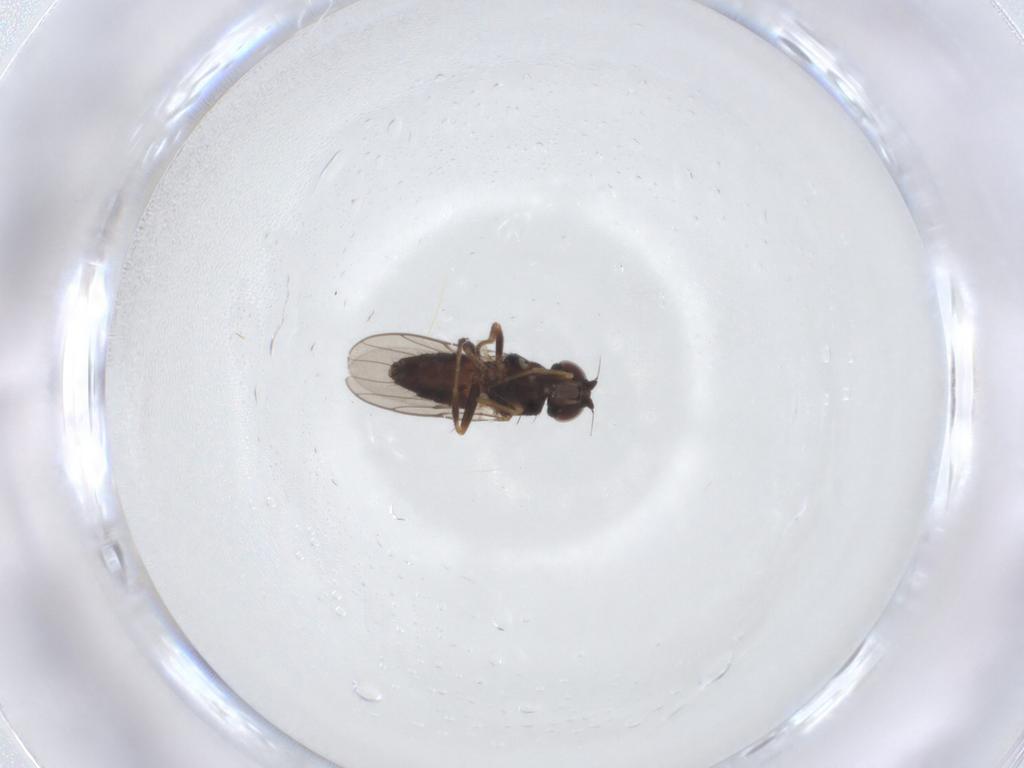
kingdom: Animalia
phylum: Arthropoda
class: Insecta
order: Diptera
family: Chloropidae
